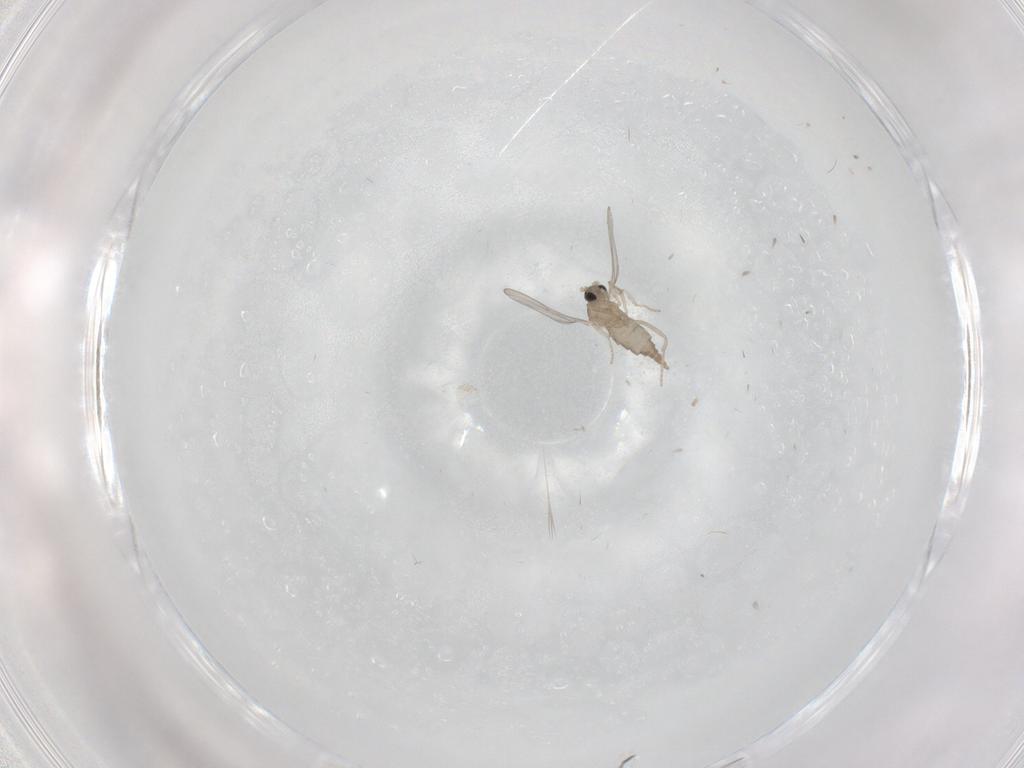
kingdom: Animalia
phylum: Arthropoda
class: Insecta
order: Diptera
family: Cecidomyiidae
